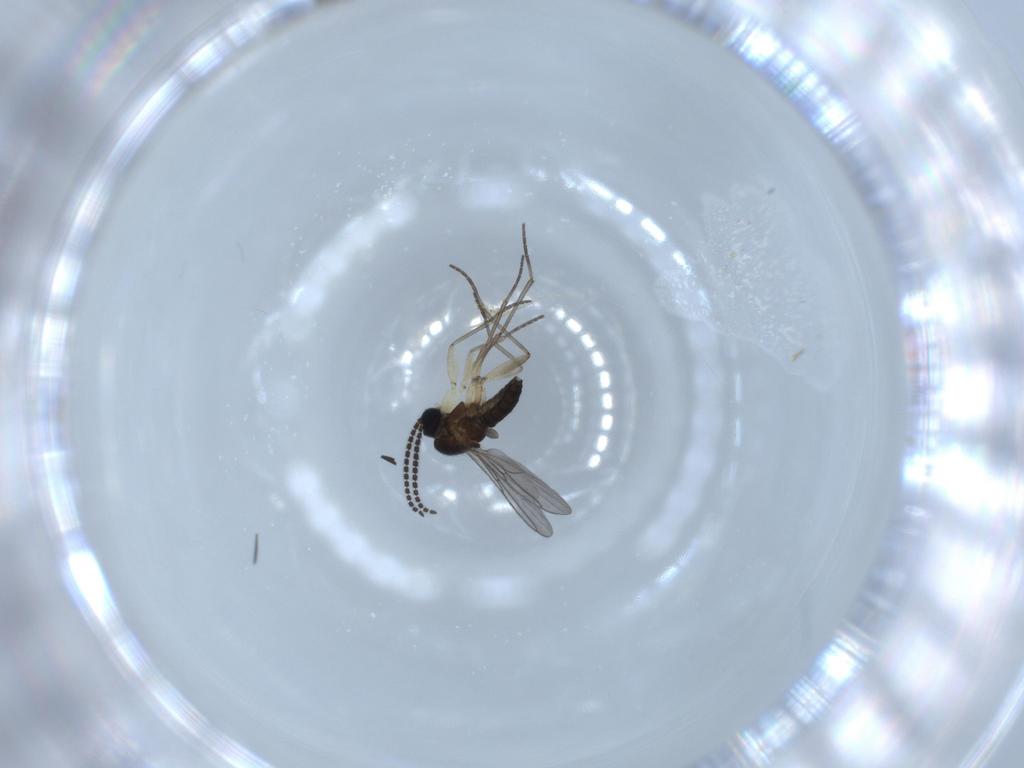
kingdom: Animalia
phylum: Arthropoda
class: Insecta
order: Diptera
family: Sciaridae
